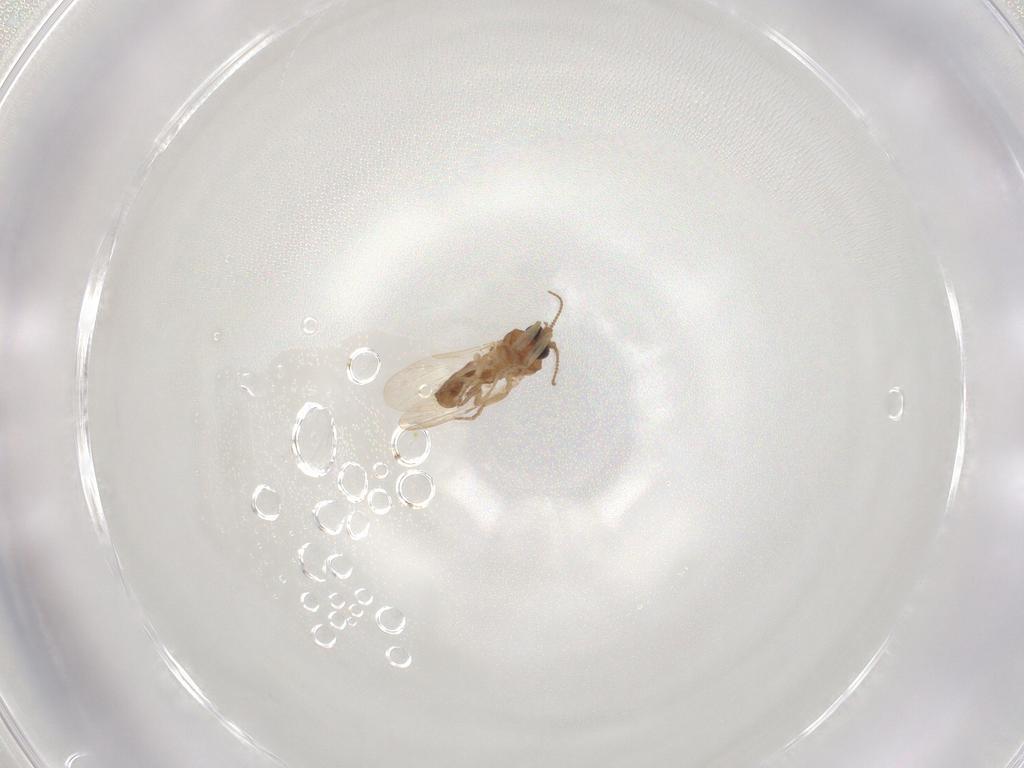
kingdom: Animalia
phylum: Arthropoda
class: Insecta
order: Diptera
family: Ceratopogonidae
